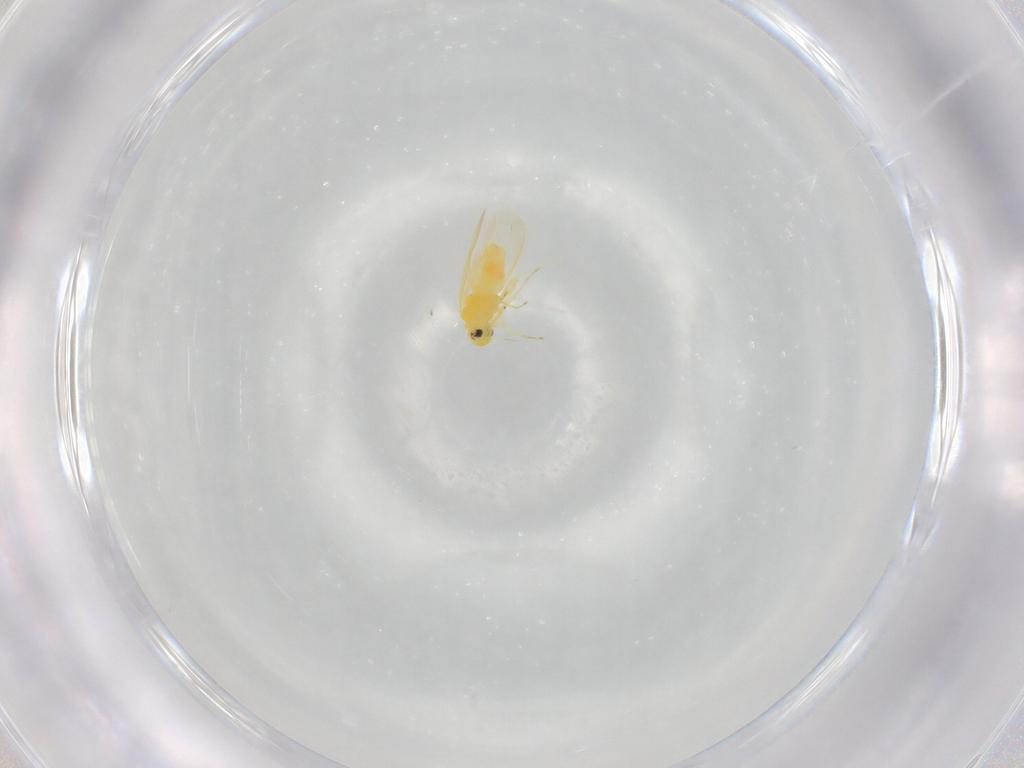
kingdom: Animalia
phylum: Arthropoda
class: Insecta
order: Hemiptera
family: Aleyrodidae
